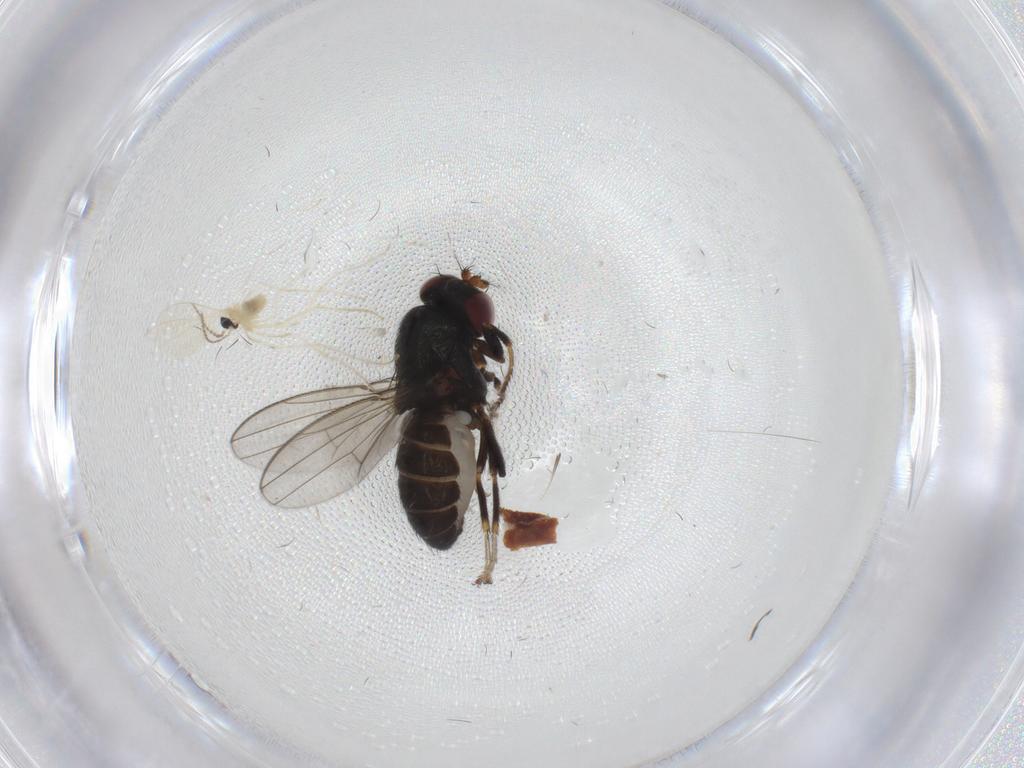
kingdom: Animalia
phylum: Arthropoda
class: Insecta
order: Diptera
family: Ephydridae
